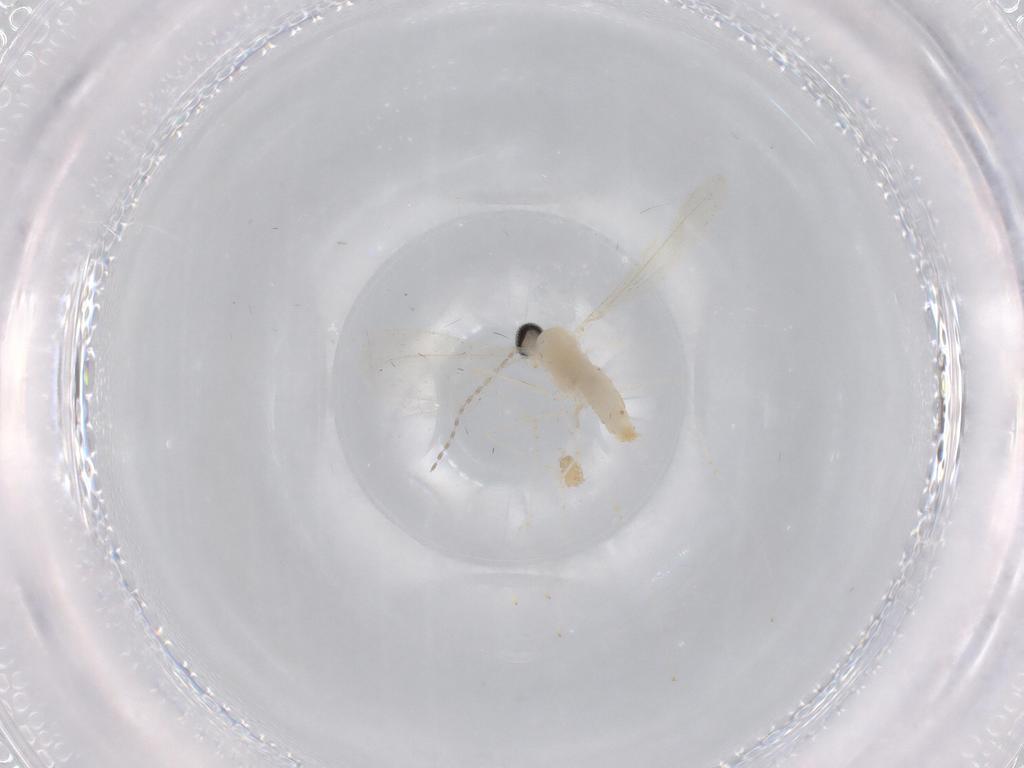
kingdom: Animalia
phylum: Arthropoda
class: Insecta
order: Diptera
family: Cecidomyiidae
